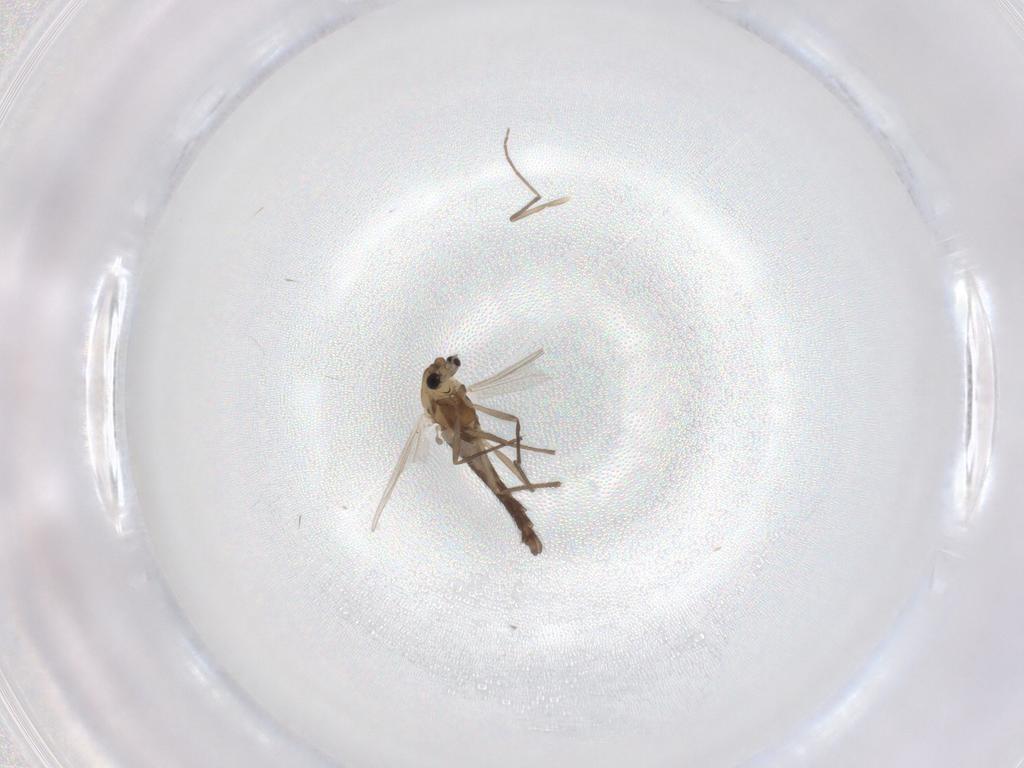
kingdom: Animalia
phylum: Arthropoda
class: Insecta
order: Diptera
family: Chironomidae
